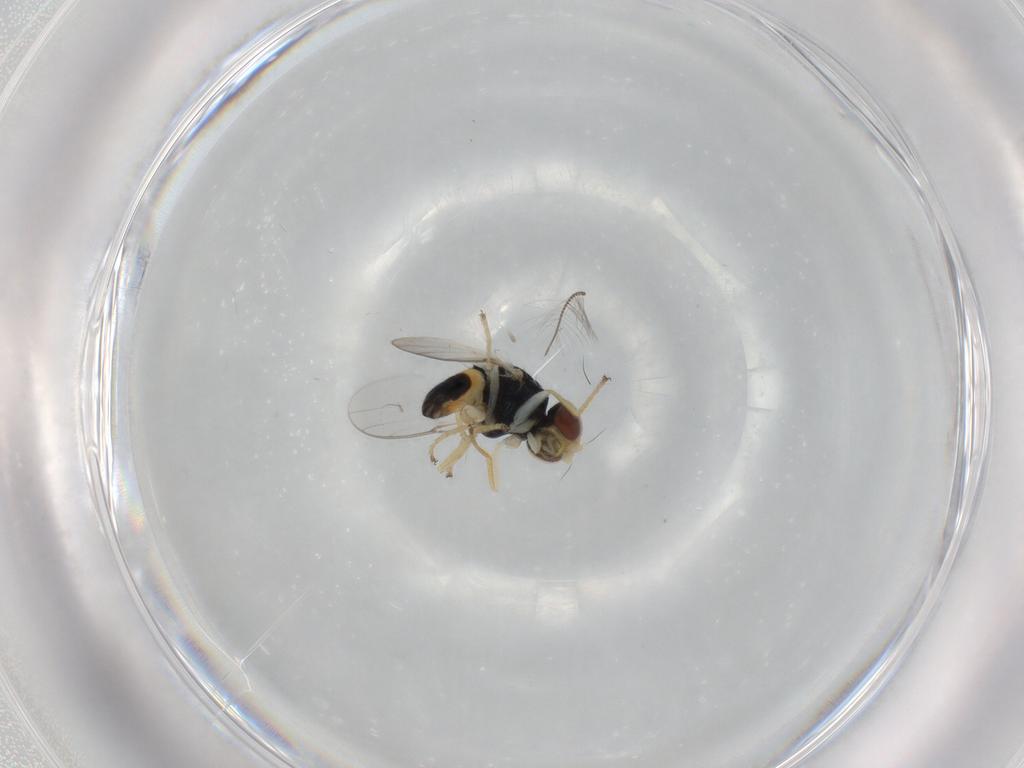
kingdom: Animalia
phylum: Arthropoda
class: Insecta
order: Diptera
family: Chloropidae
